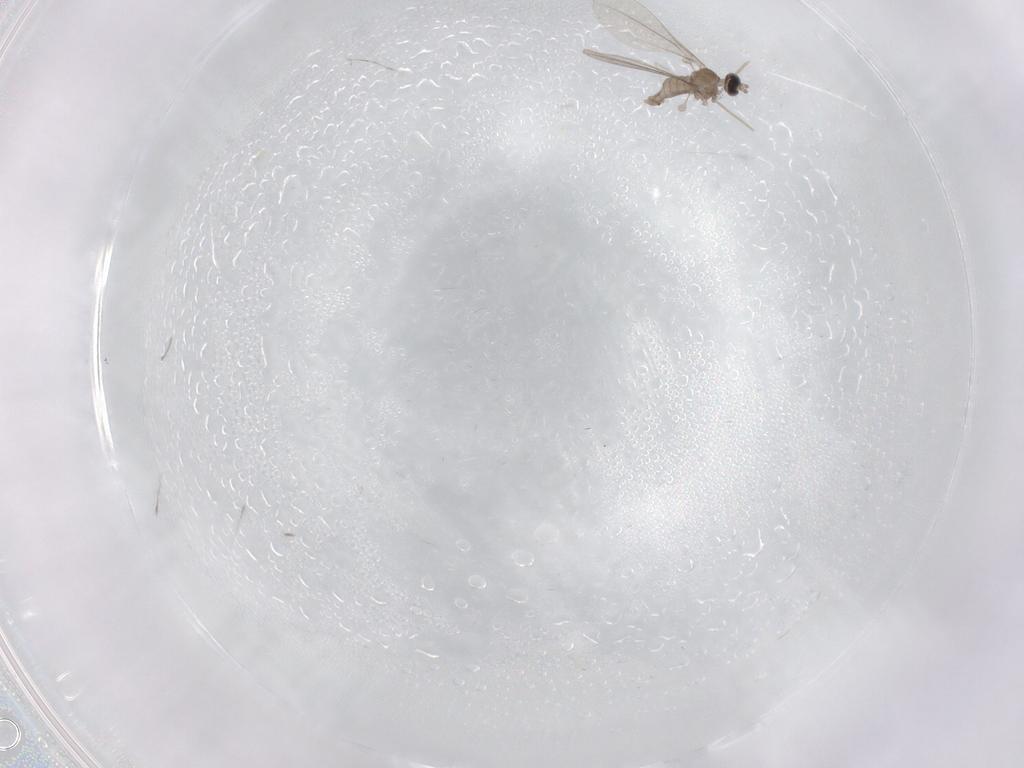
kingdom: Animalia
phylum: Arthropoda
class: Insecta
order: Diptera
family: Cecidomyiidae
